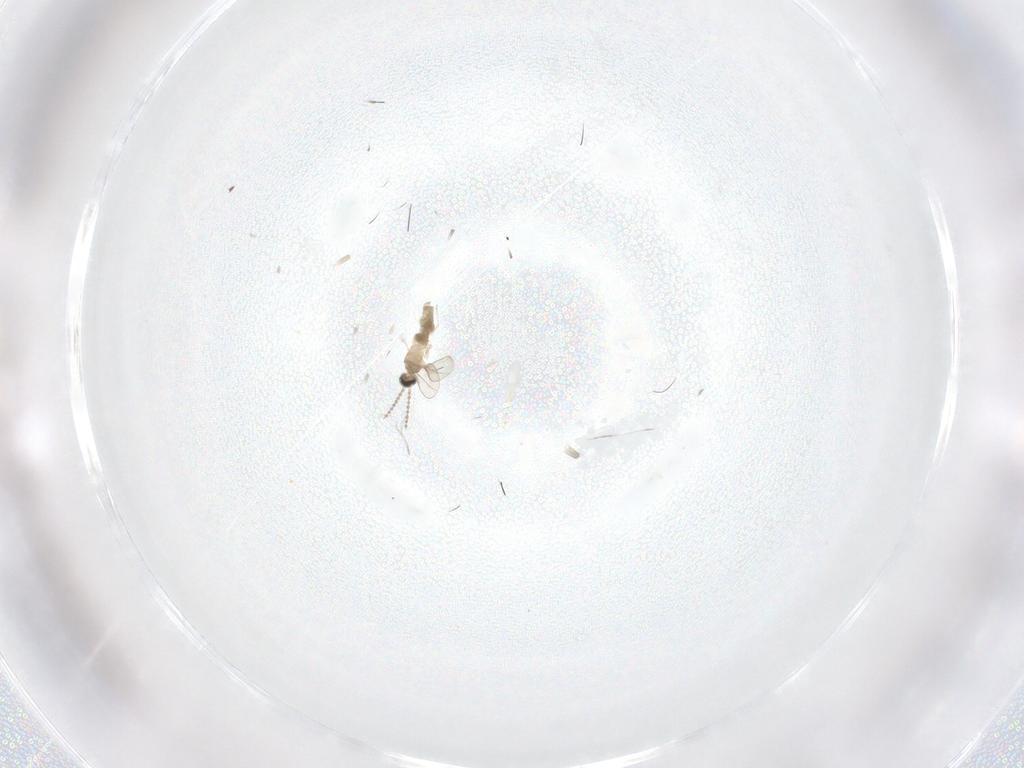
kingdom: Animalia
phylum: Arthropoda
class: Insecta
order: Diptera
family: Cecidomyiidae
